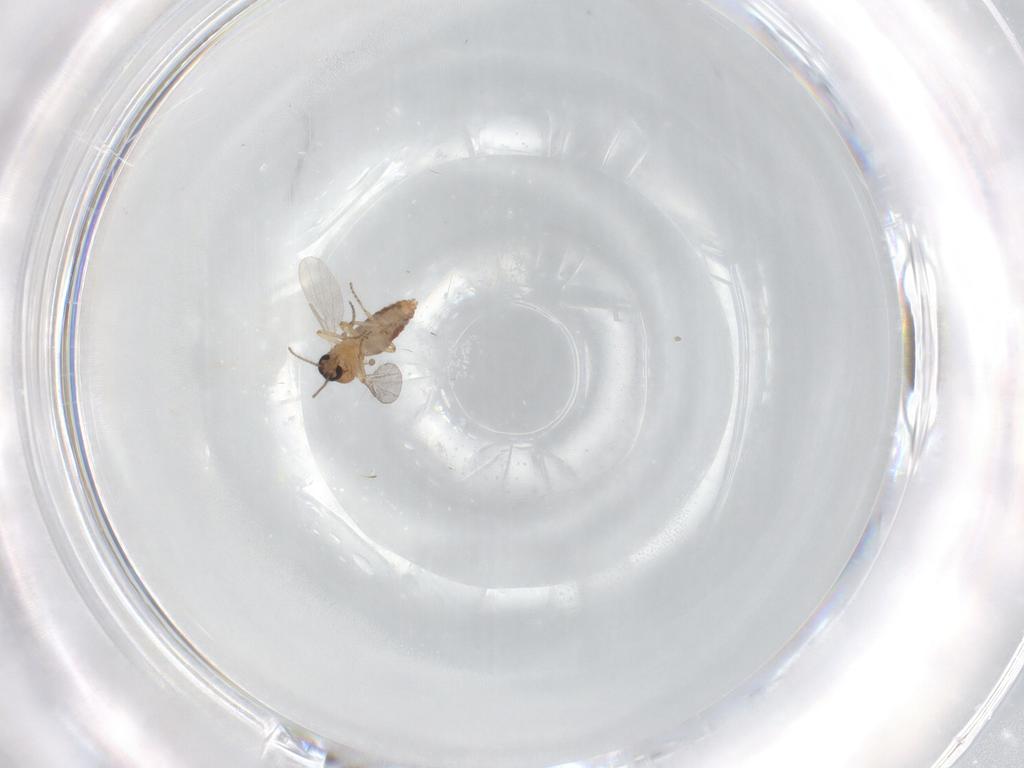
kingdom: Animalia
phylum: Arthropoda
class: Insecta
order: Diptera
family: Ceratopogonidae
